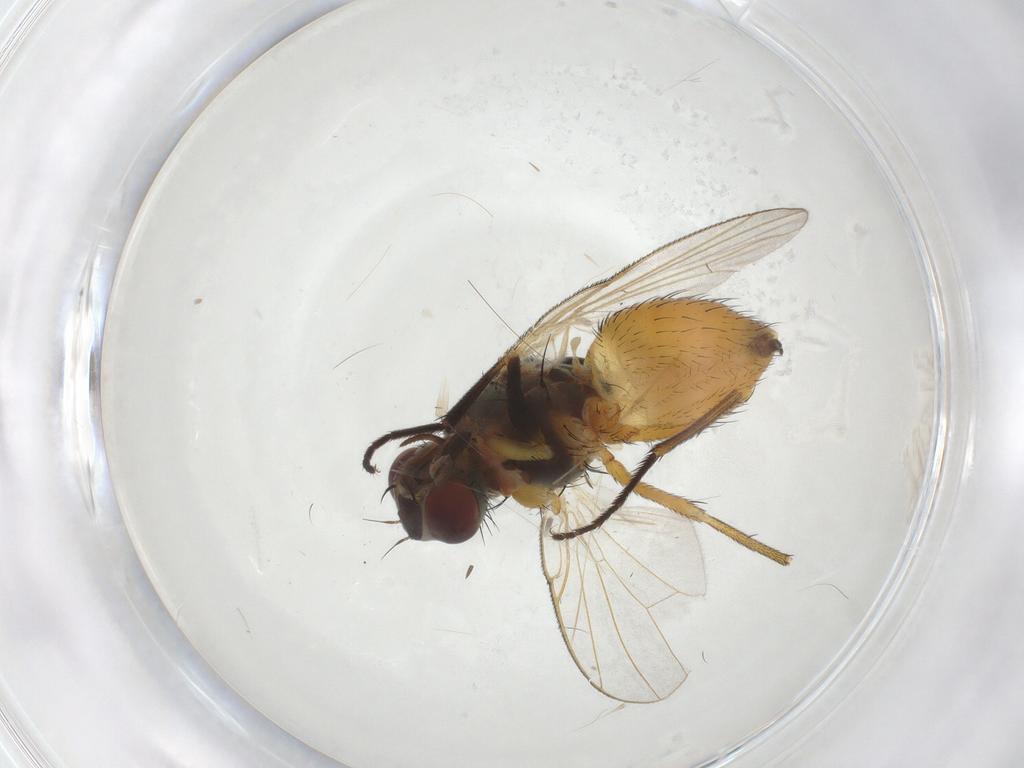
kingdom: Animalia
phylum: Arthropoda
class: Insecta
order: Diptera
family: Muscidae
